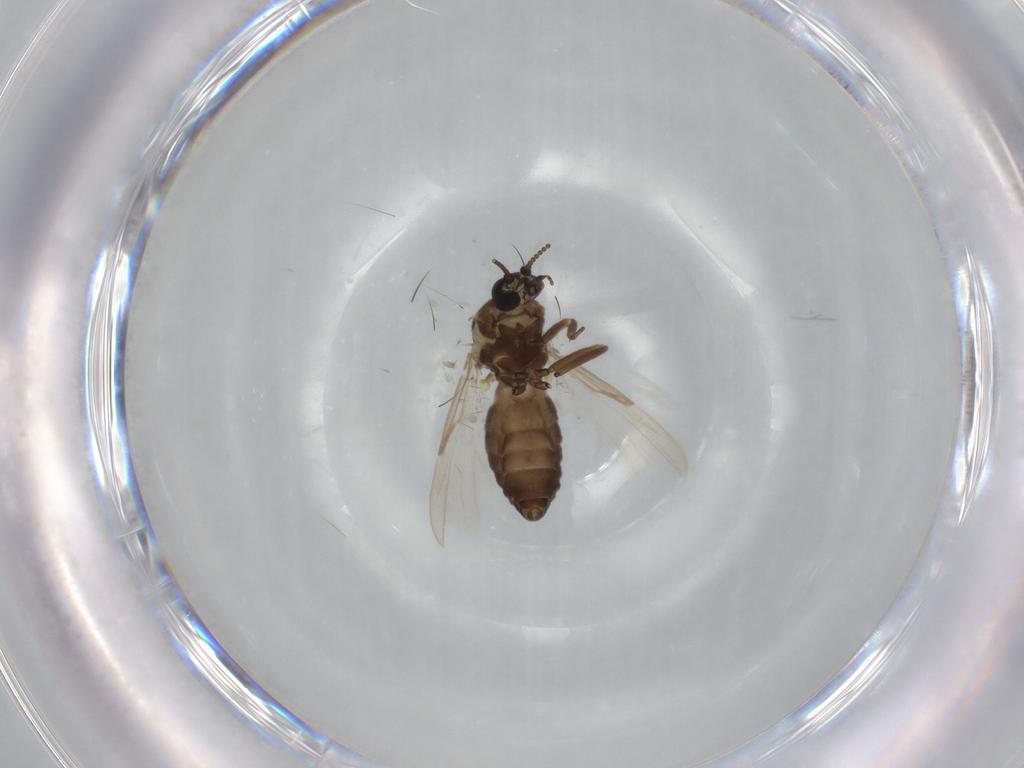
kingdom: Animalia
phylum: Arthropoda
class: Insecta
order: Diptera
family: Ceratopogonidae
